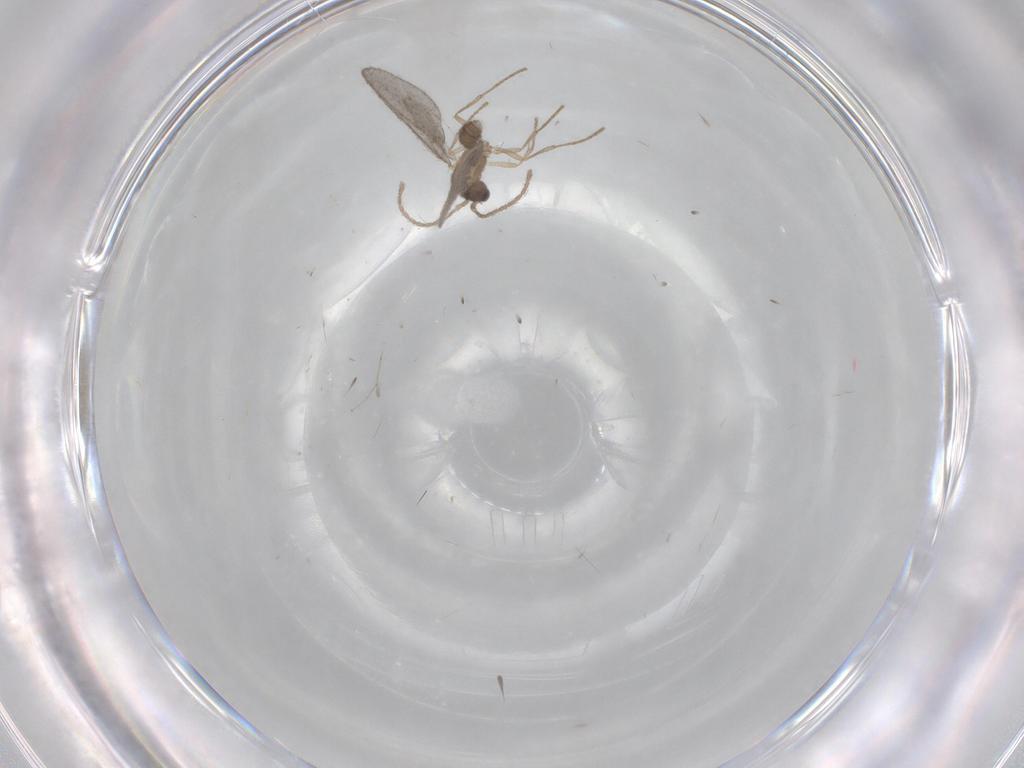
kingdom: Animalia
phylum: Arthropoda
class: Insecta
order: Hymenoptera
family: Formicidae
